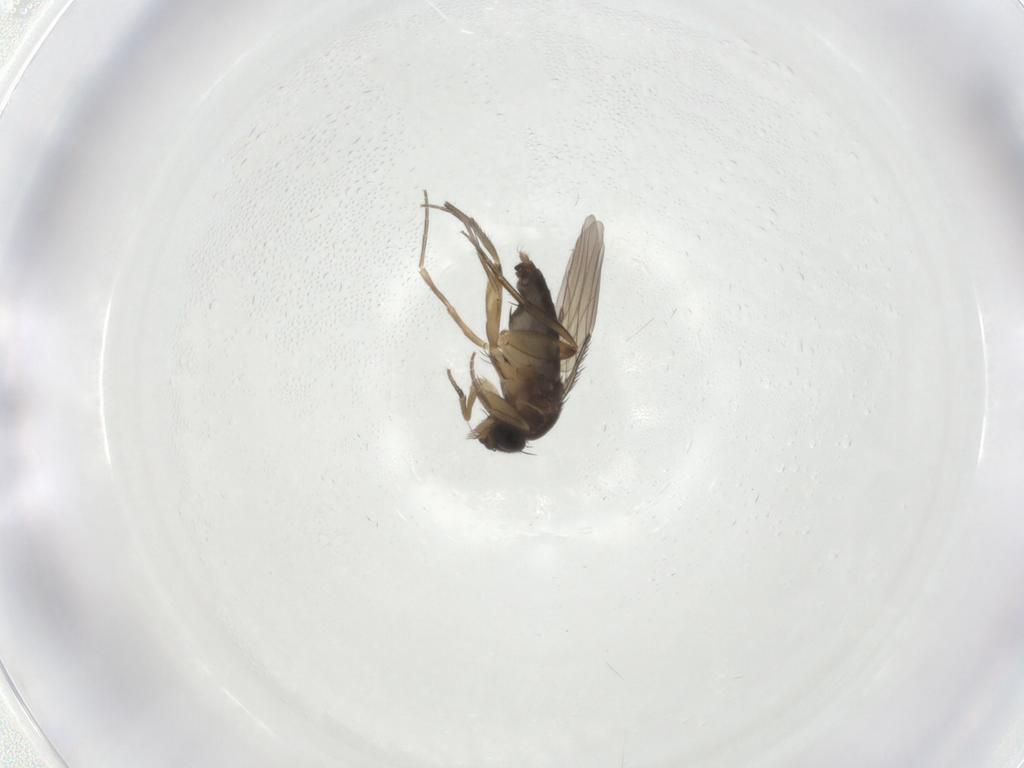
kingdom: Animalia
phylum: Arthropoda
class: Insecta
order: Diptera
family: Phoridae
